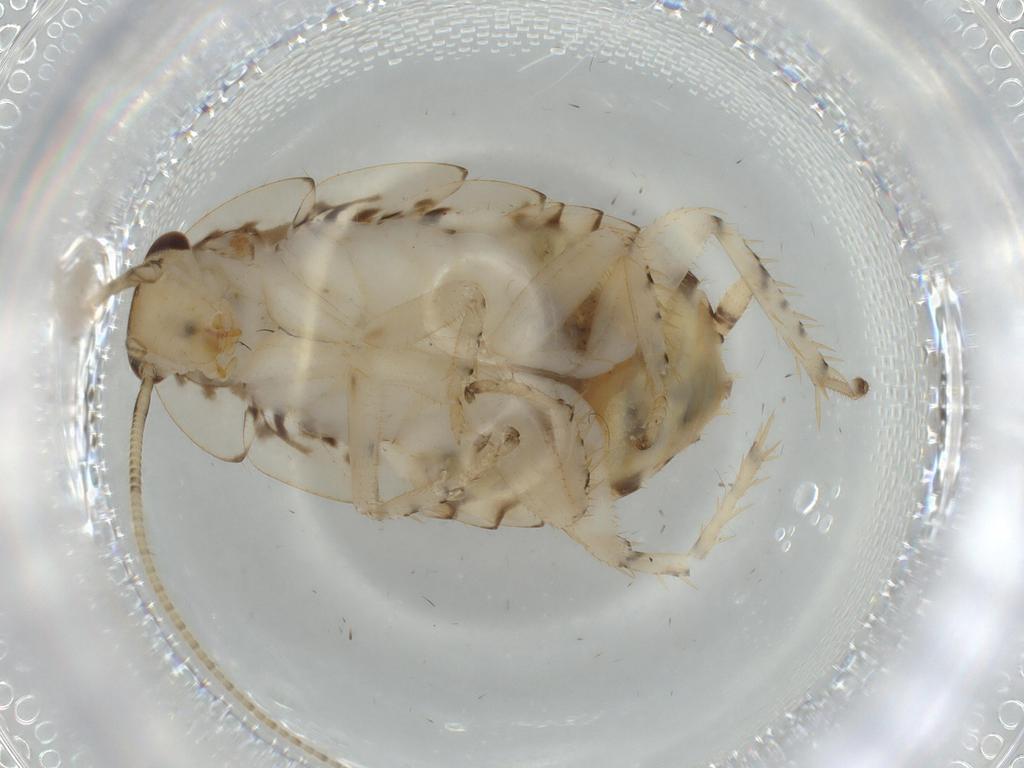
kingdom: Animalia
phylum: Arthropoda
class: Insecta
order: Blattodea
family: Ectobiidae
